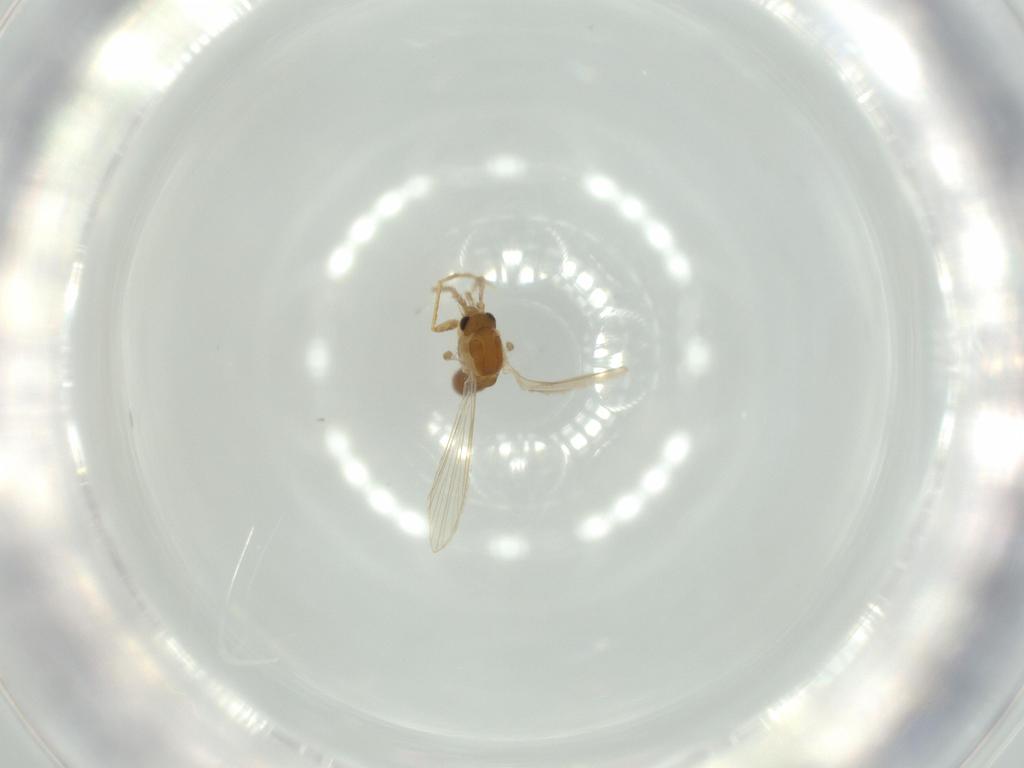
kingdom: Animalia
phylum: Arthropoda
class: Insecta
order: Diptera
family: Psychodidae
